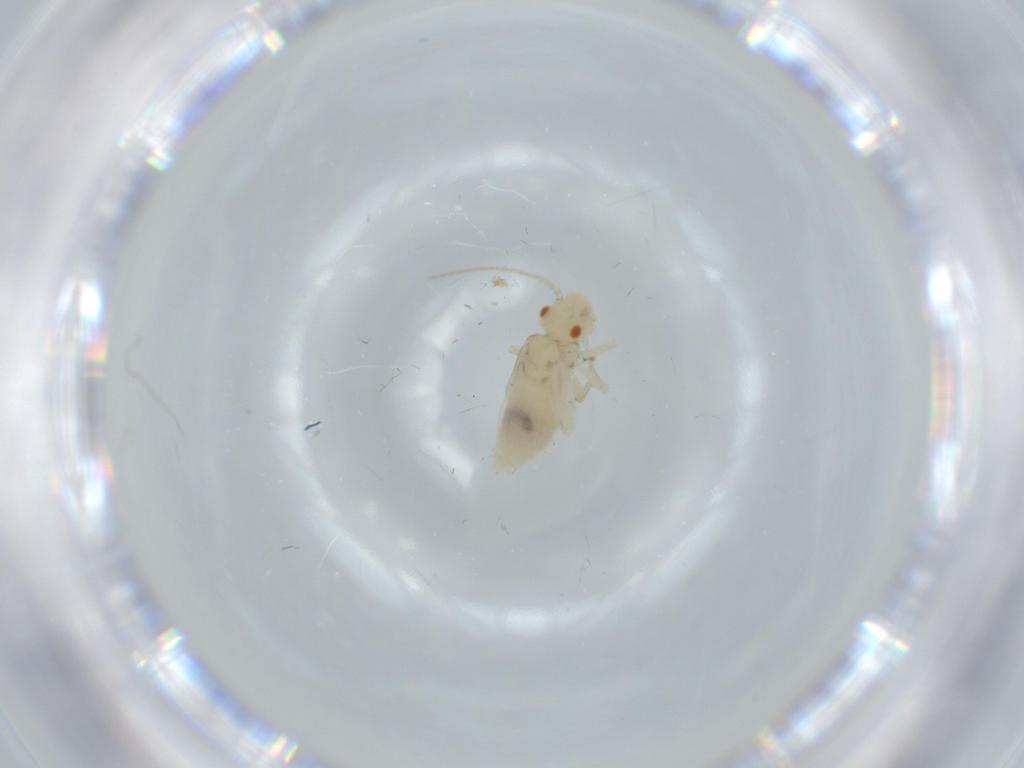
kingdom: Animalia
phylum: Arthropoda
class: Insecta
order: Psocodea
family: Caeciliusidae
